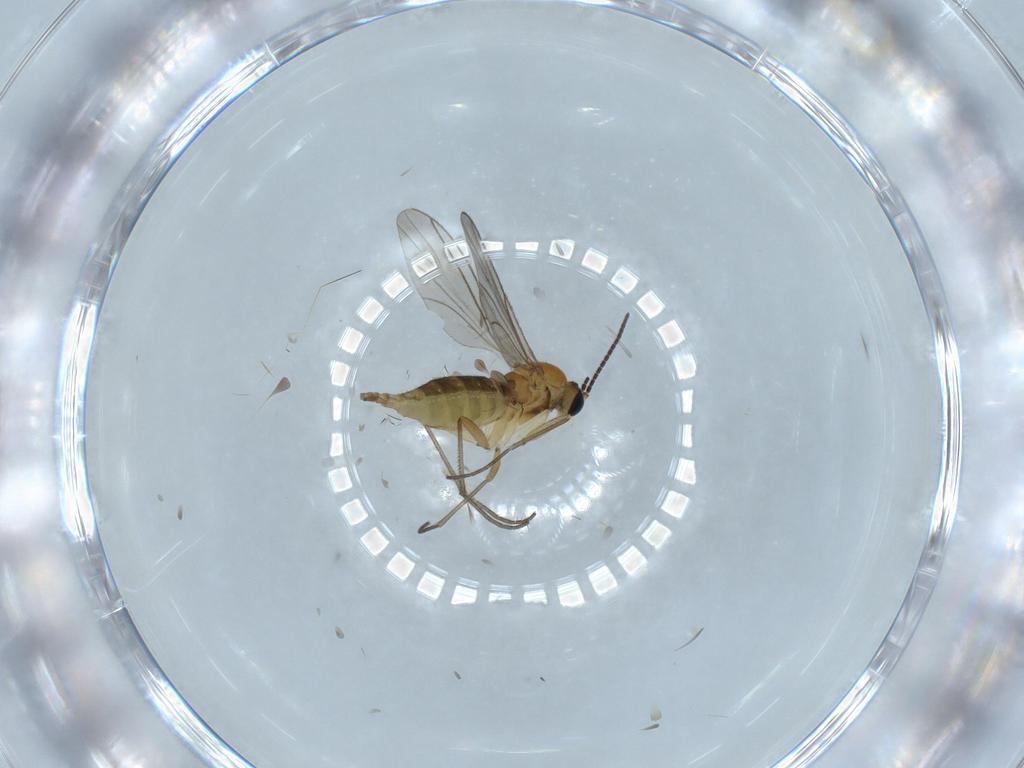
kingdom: Animalia
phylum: Arthropoda
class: Insecta
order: Diptera
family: Sciaridae
